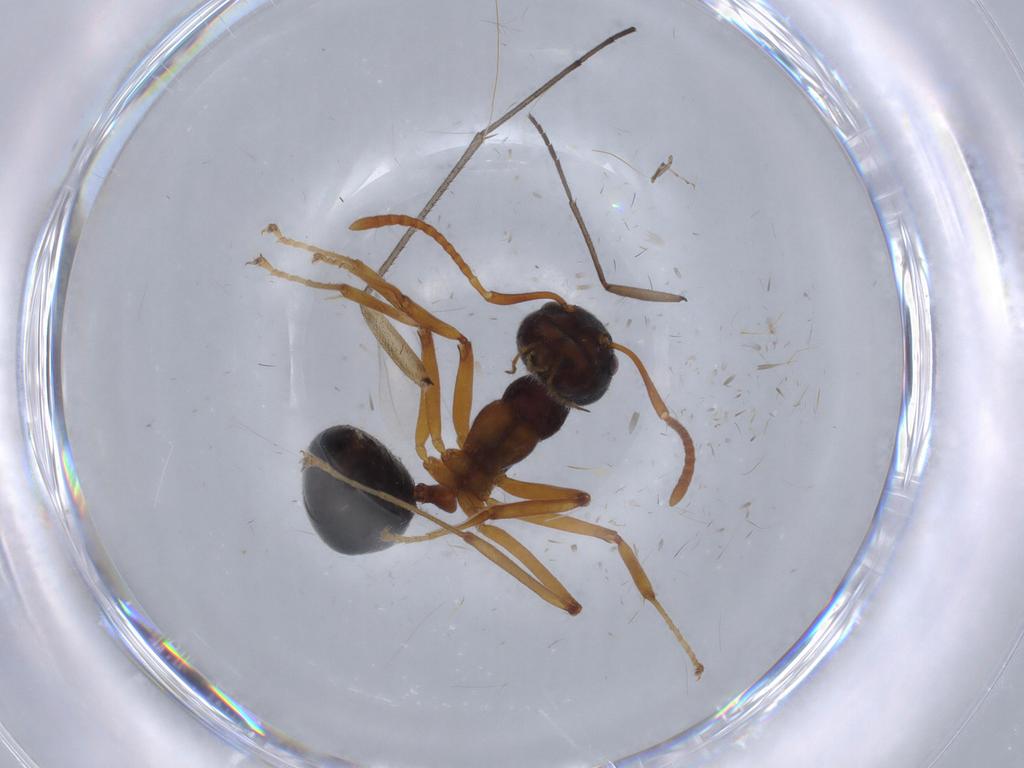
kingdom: Animalia
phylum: Arthropoda
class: Insecta
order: Hymenoptera
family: Formicidae
